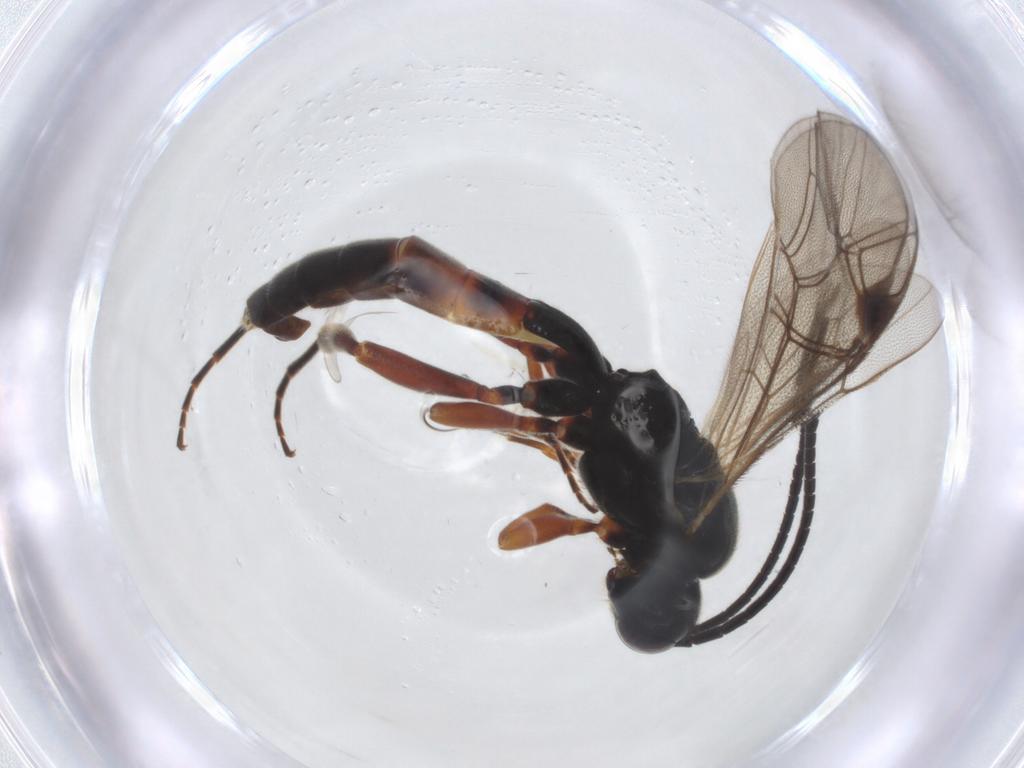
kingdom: Animalia
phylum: Arthropoda
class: Insecta
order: Hymenoptera
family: Ichneumonidae
